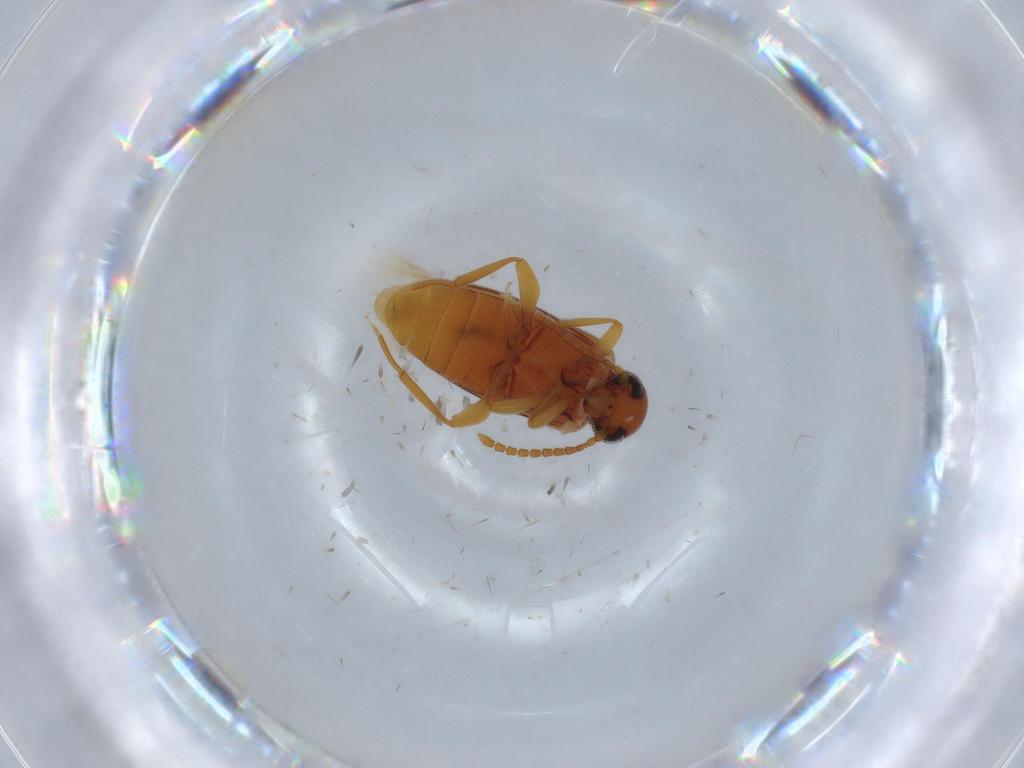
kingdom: Animalia
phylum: Arthropoda
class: Insecta
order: Coleoptera
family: Aderidae
